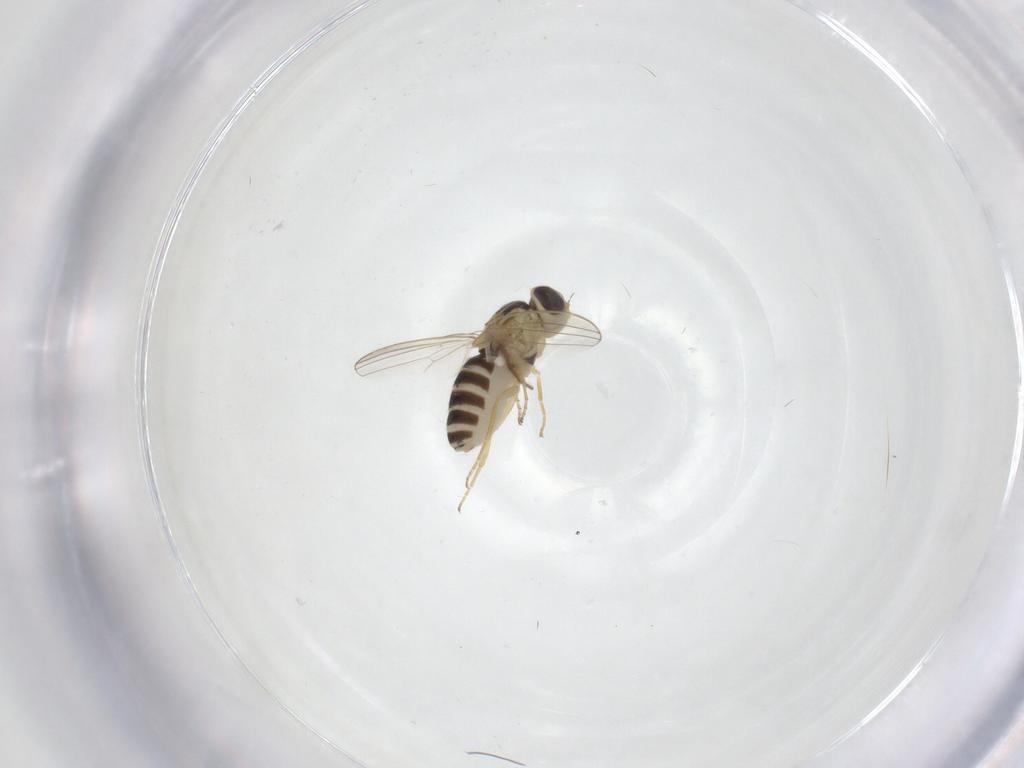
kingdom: Animalia
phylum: Arthropoda
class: Insecta
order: Diptera
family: Chyromyidae
